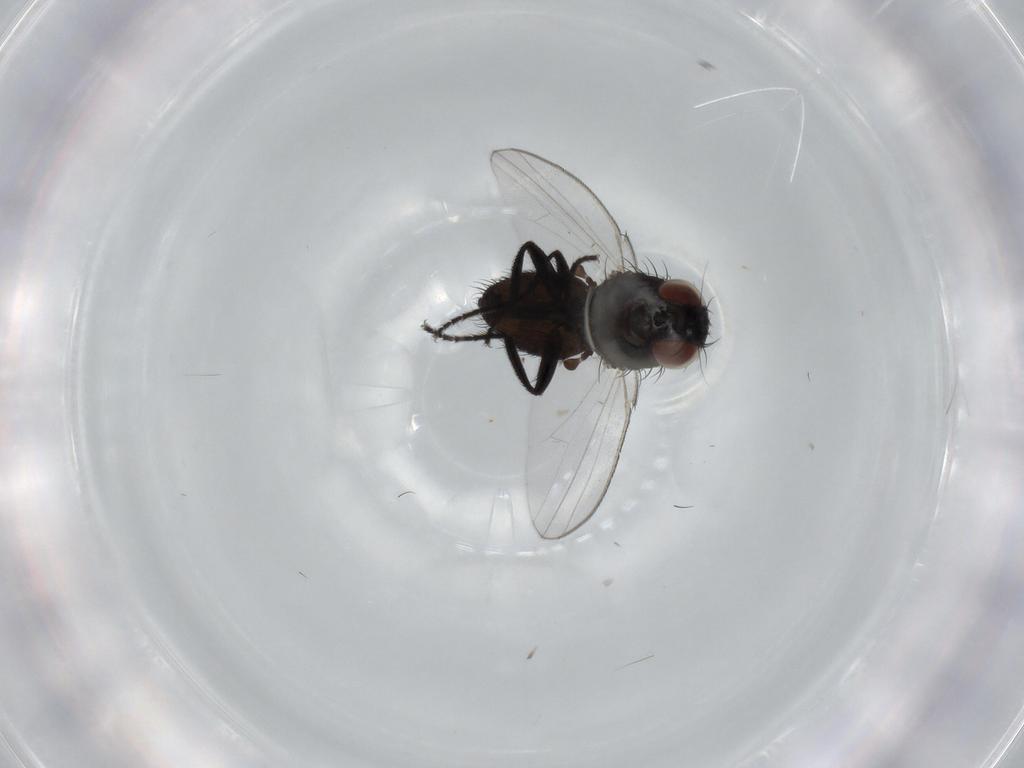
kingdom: Animalia
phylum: Arthropoda
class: Insecta
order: Diptera
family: Milichiidae
